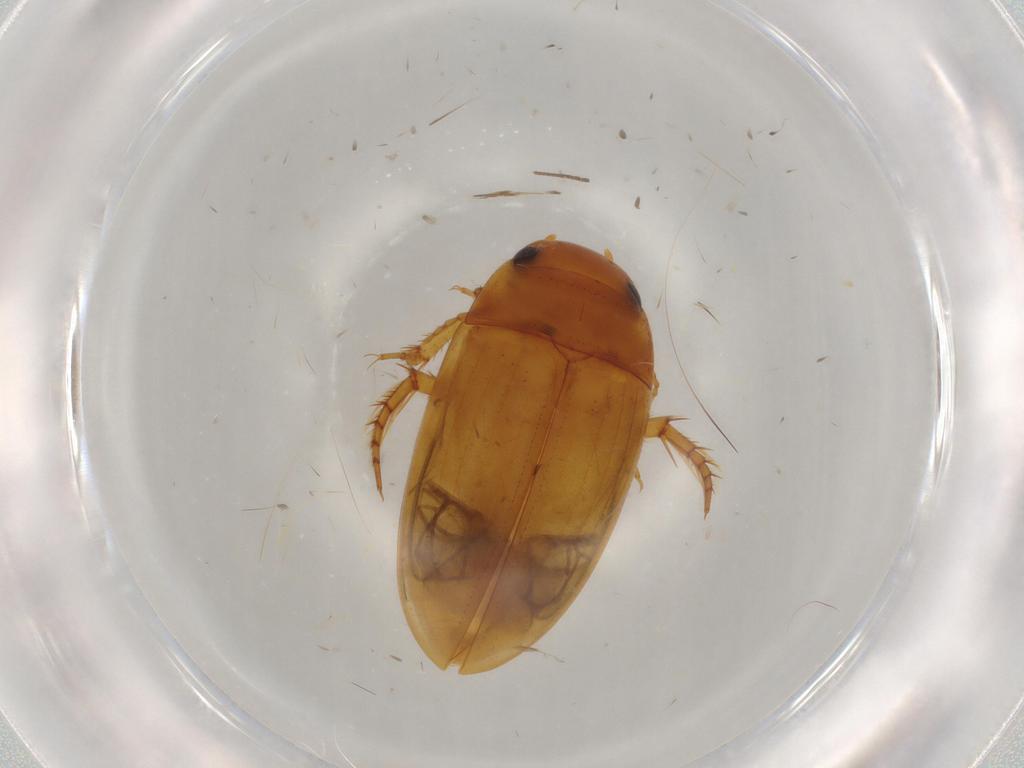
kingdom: Animalia
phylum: Arthropoda
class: Insecta
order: Coleoptera
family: Dytiscidae
